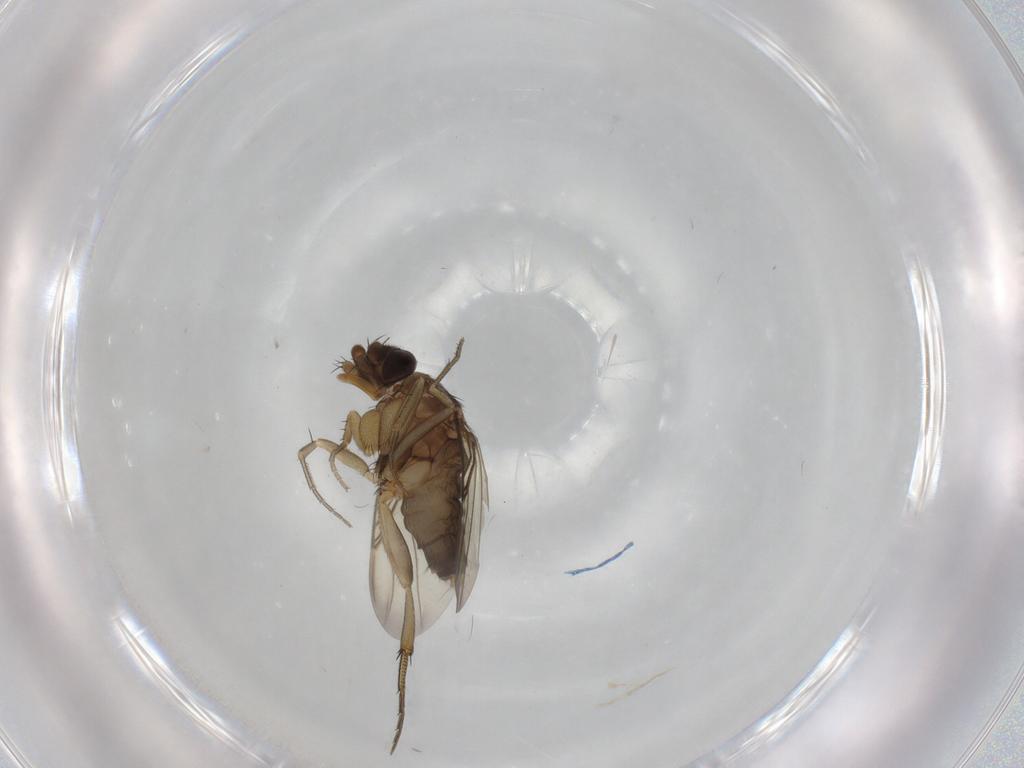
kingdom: Animalia
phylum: Arthropoda
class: Insecta
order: Diptera
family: Phoridae
